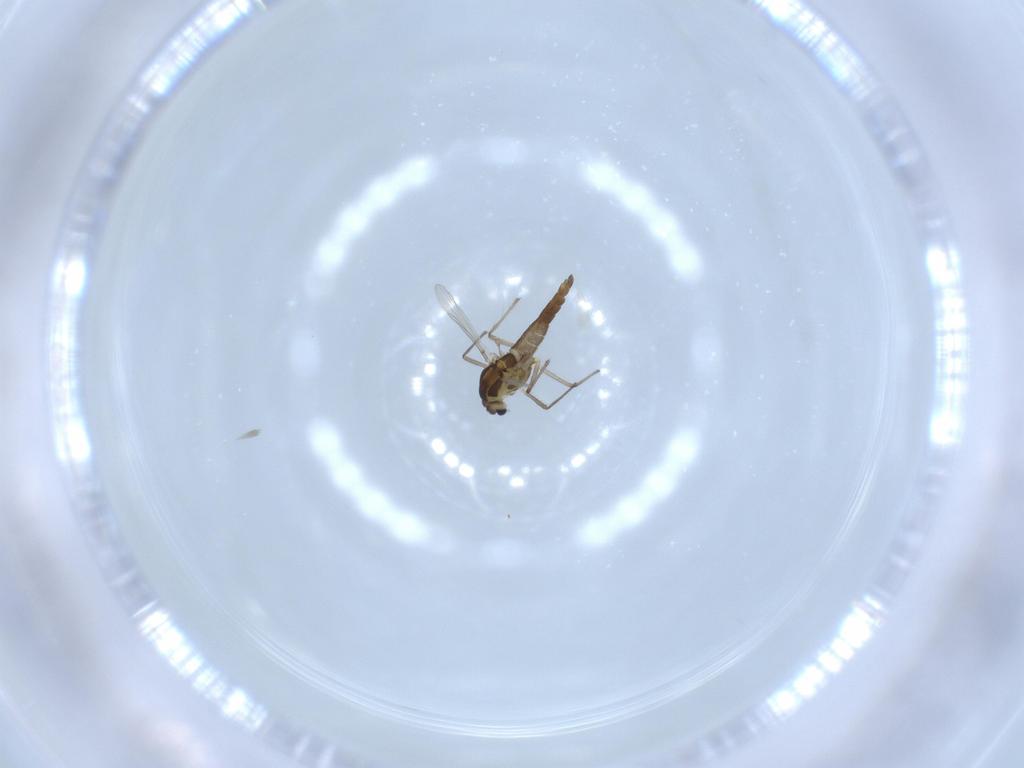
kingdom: Animalia
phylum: Arthropoda
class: Insecta
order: Diptera
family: Chironomidae
